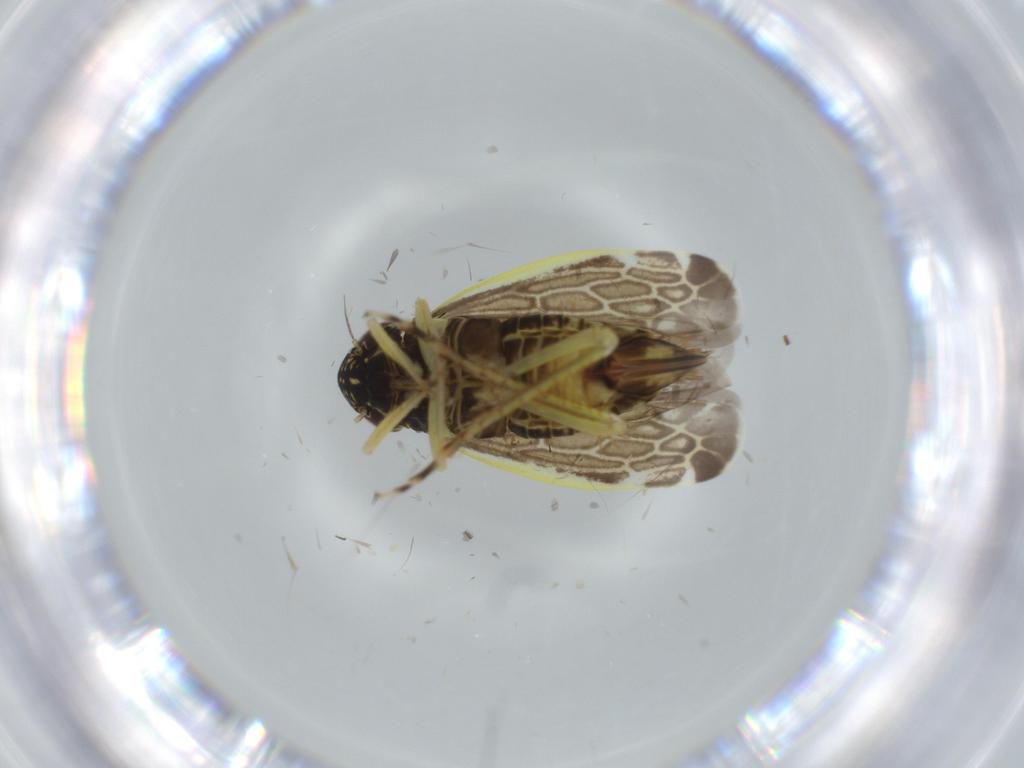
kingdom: Animalia
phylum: Arthropoda
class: Insecta
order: Hemiptera
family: Cicadellidae
